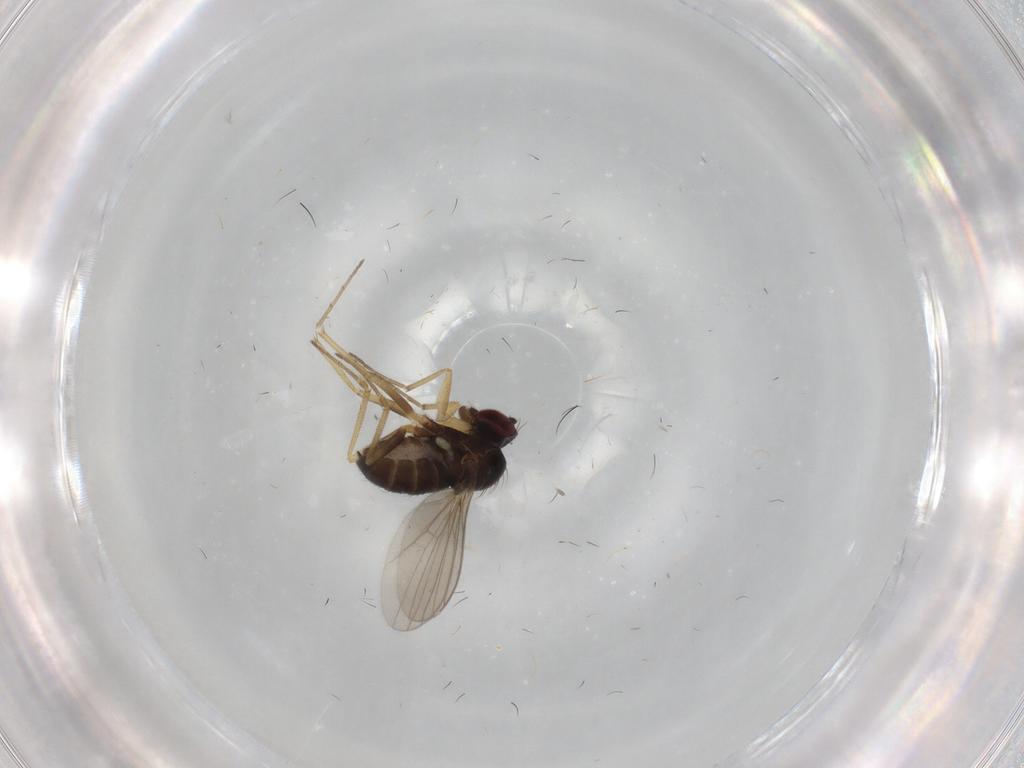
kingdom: Animalia
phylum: Arthropoda
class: Insecta
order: Diptera
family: Dolichopodidae
